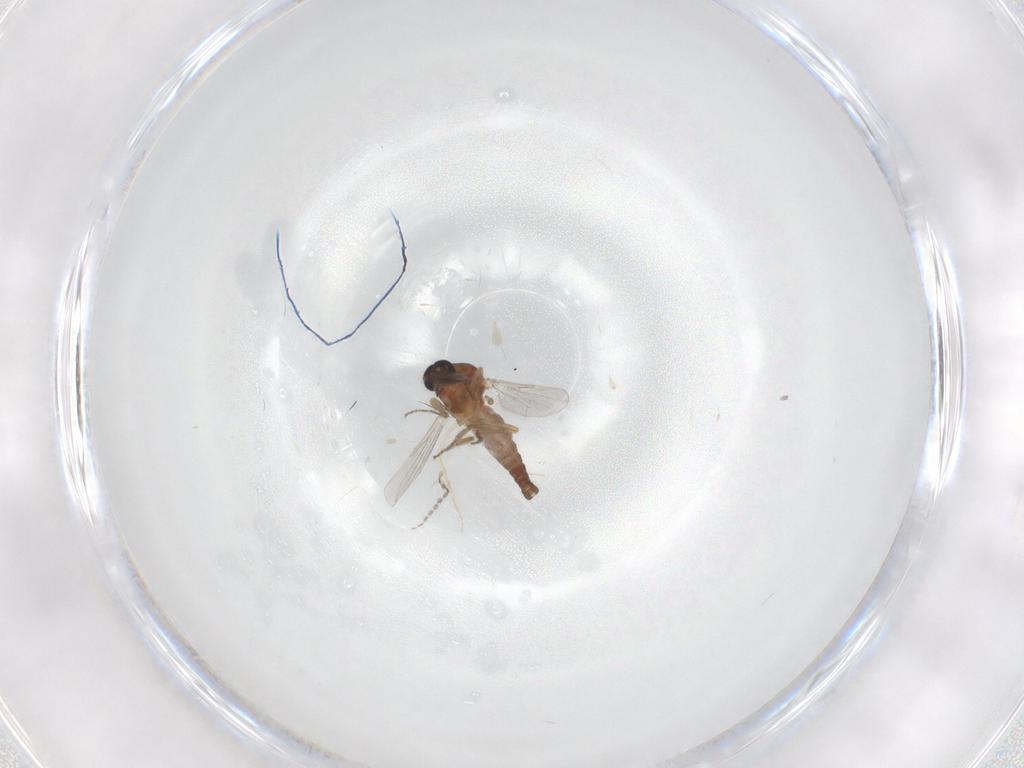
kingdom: Animalia
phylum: Arthropoda
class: Insecta
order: Diptera
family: Ceratopogonidae
